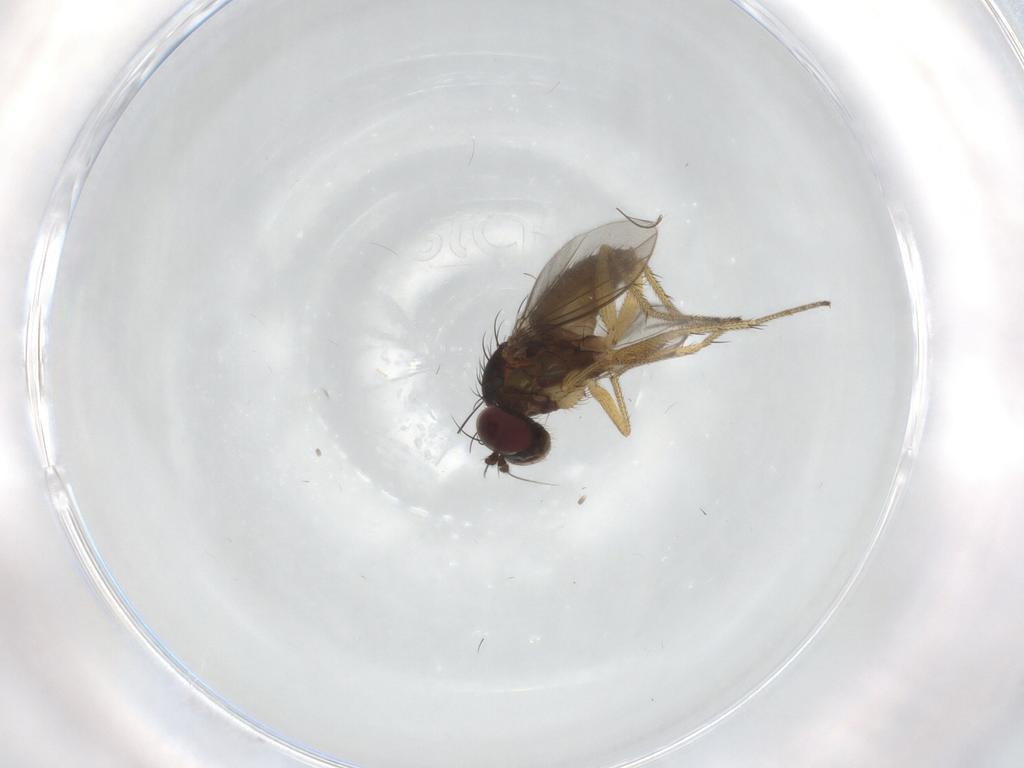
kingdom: Animalia
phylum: Arthropoda
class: Insecta
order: Diptera
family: Dolichopodidae
